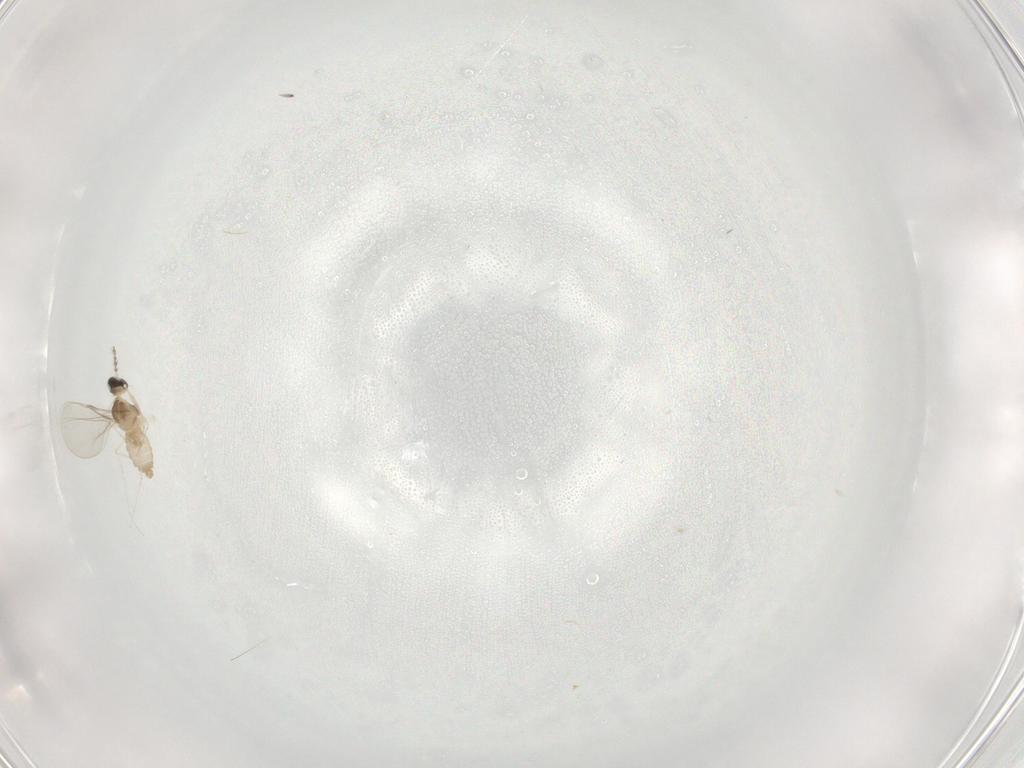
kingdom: Animalia
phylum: Arthropoda
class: Insecta
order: Diptera
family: Cecidomyiidae
